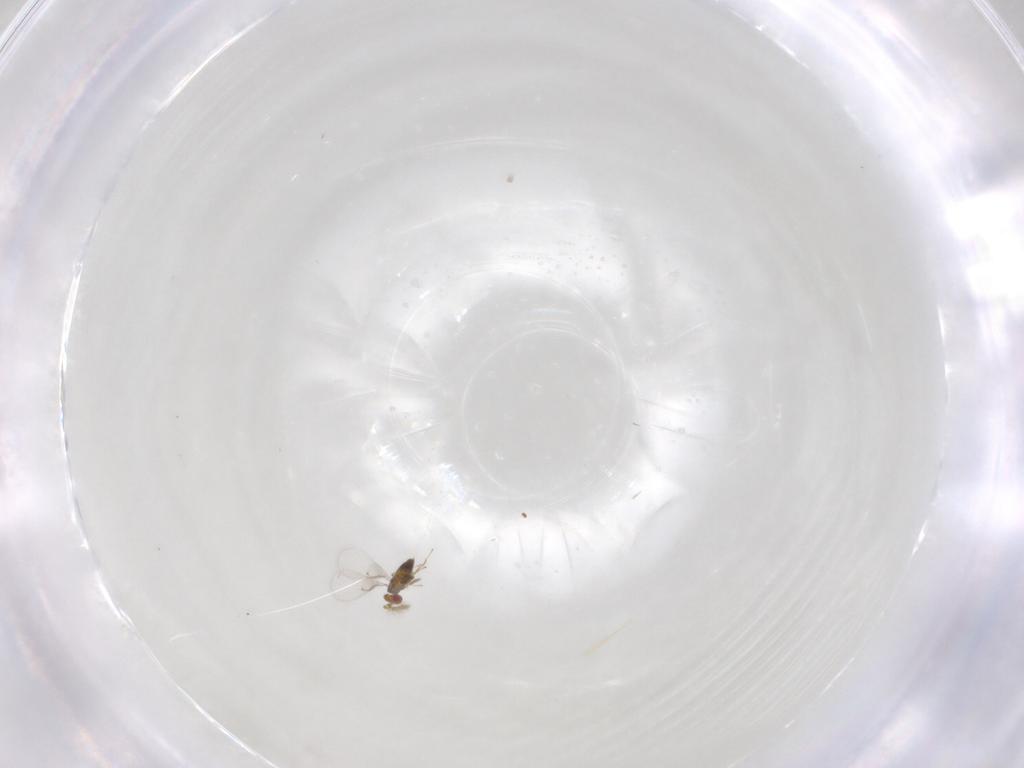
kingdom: Animalia
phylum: Arthropoda
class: Insecta
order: Hymenoptera
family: Trichogrammatidae
